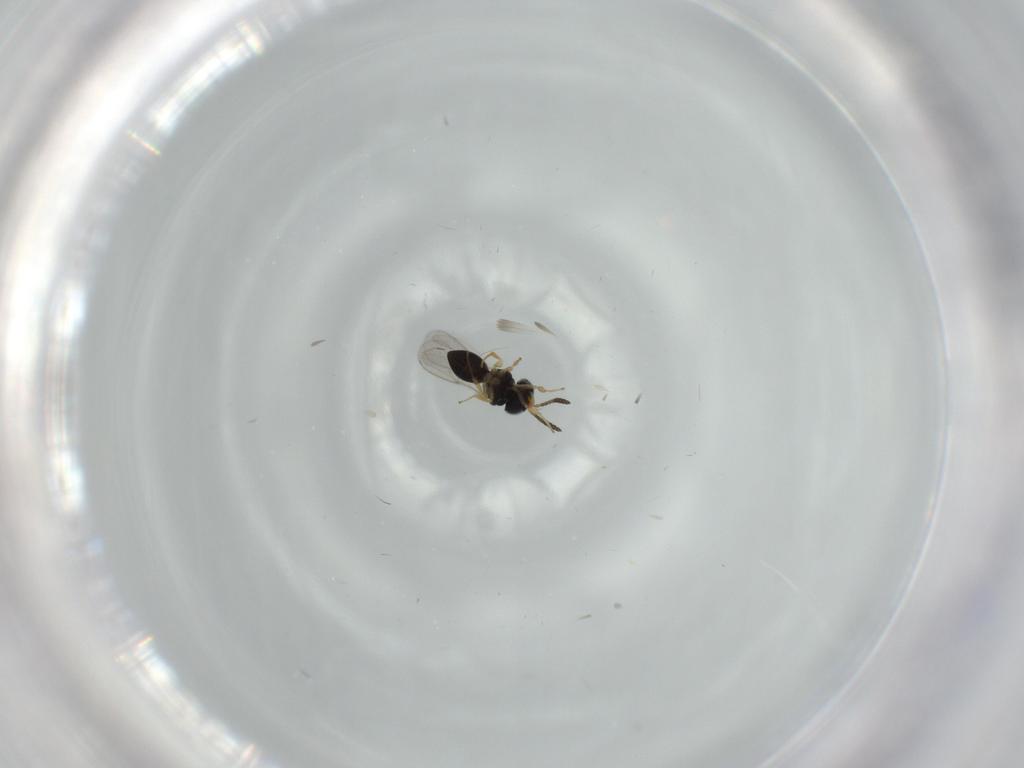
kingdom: Animalia
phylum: Arthropoda
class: Insecta
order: Hymenoptera
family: Scelionidae
